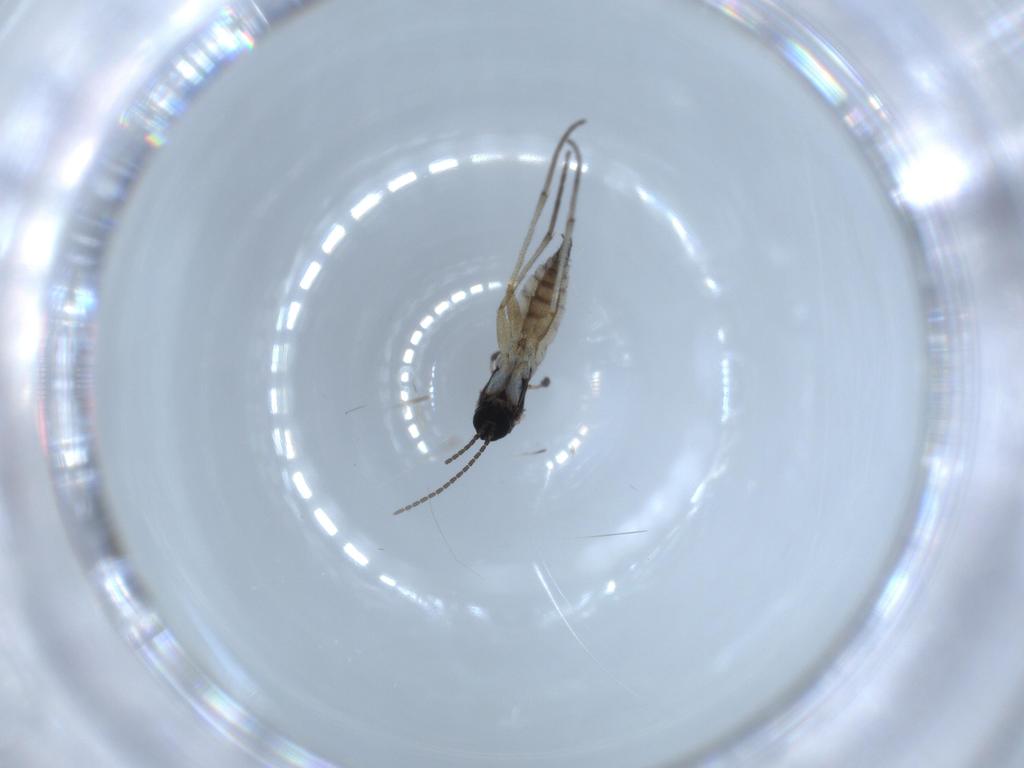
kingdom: Animalia
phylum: Arthropoda
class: Insecta
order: Diptera
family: Sciaridae
